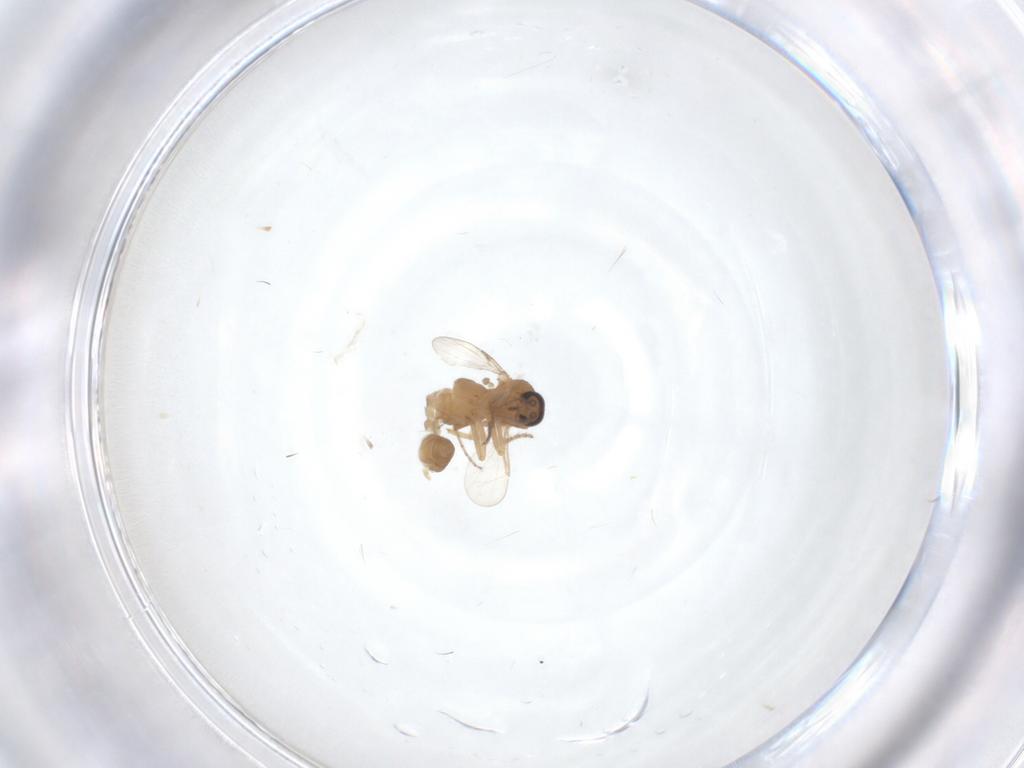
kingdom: Animalia
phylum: Arthropoda
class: Insecta
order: Diptera
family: Ceratopogonidae
